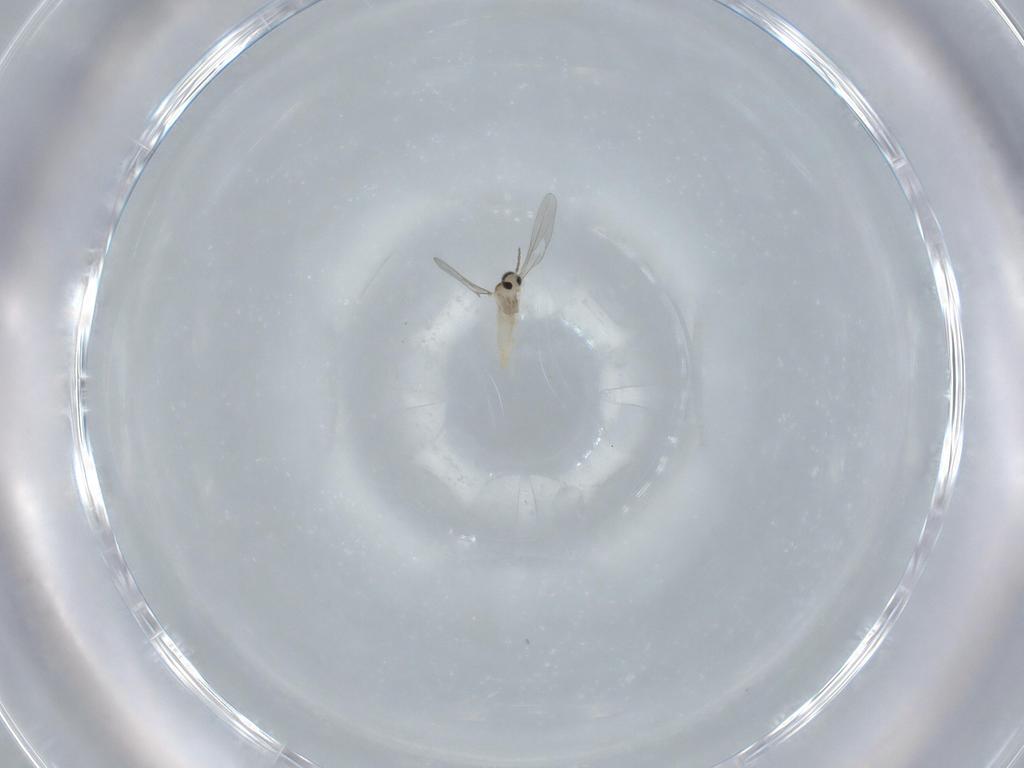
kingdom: Animalia
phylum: Arthropoda
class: Insecta
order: Diptera
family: Cecidomyiidae
